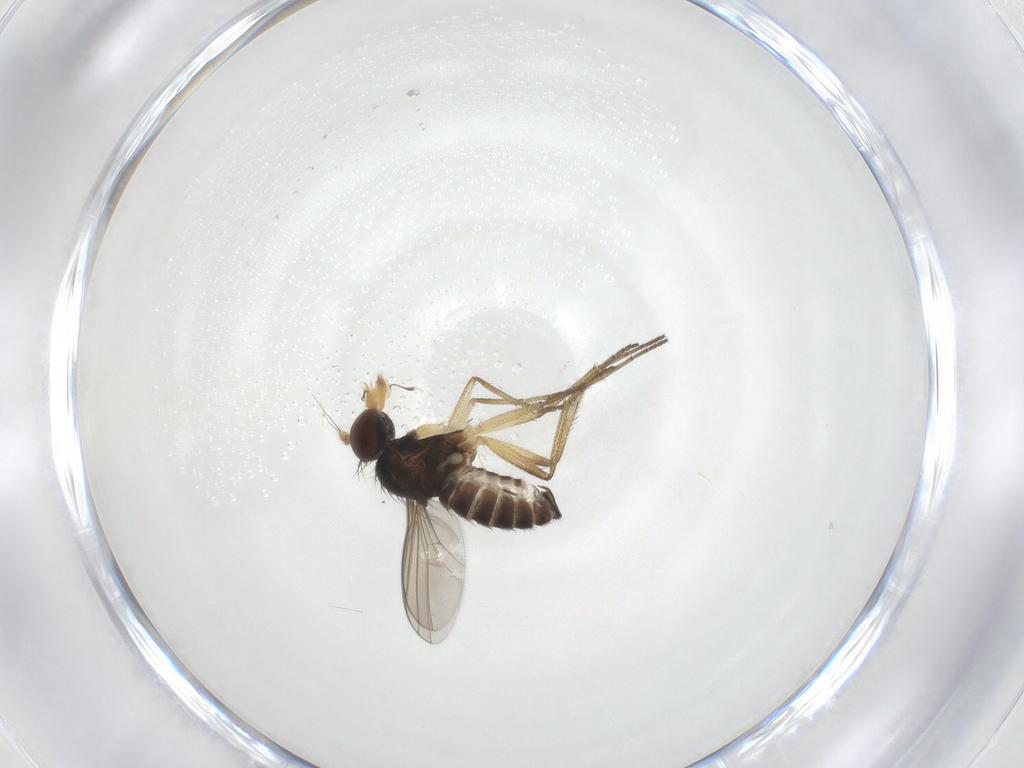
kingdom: Animalia
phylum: Arthropoda
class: Insecta
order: Diptera
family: Dolichopodidae
